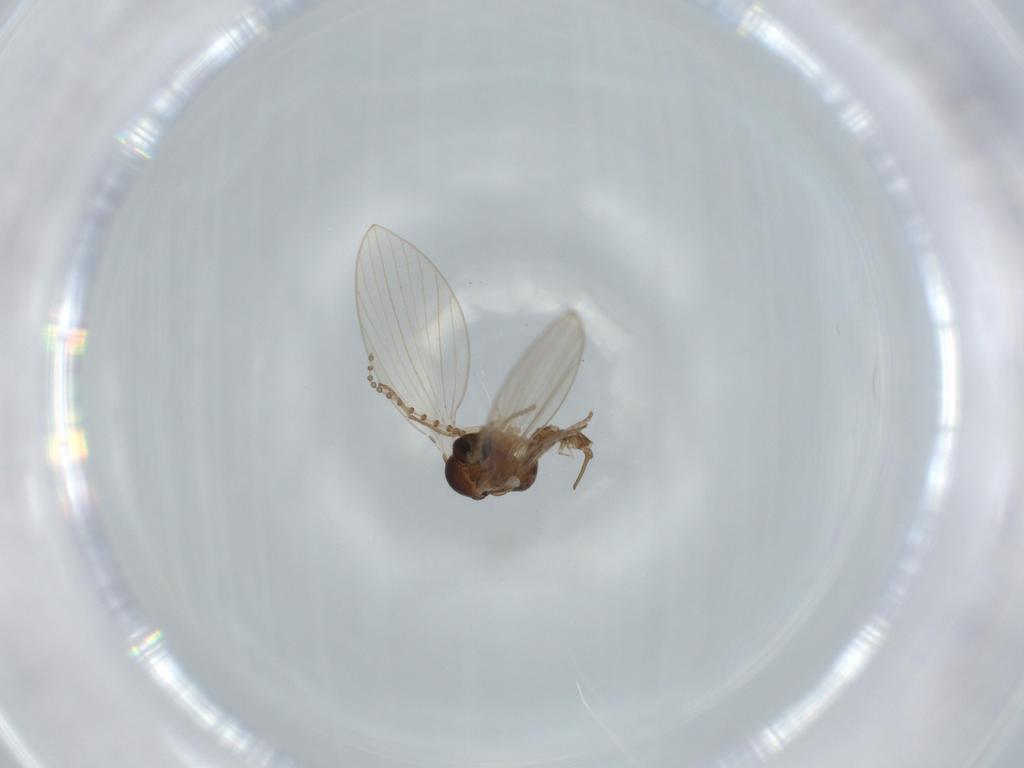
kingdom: Animalia
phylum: Arthropoda
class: Insecta
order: Diptera
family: Psychodidae
